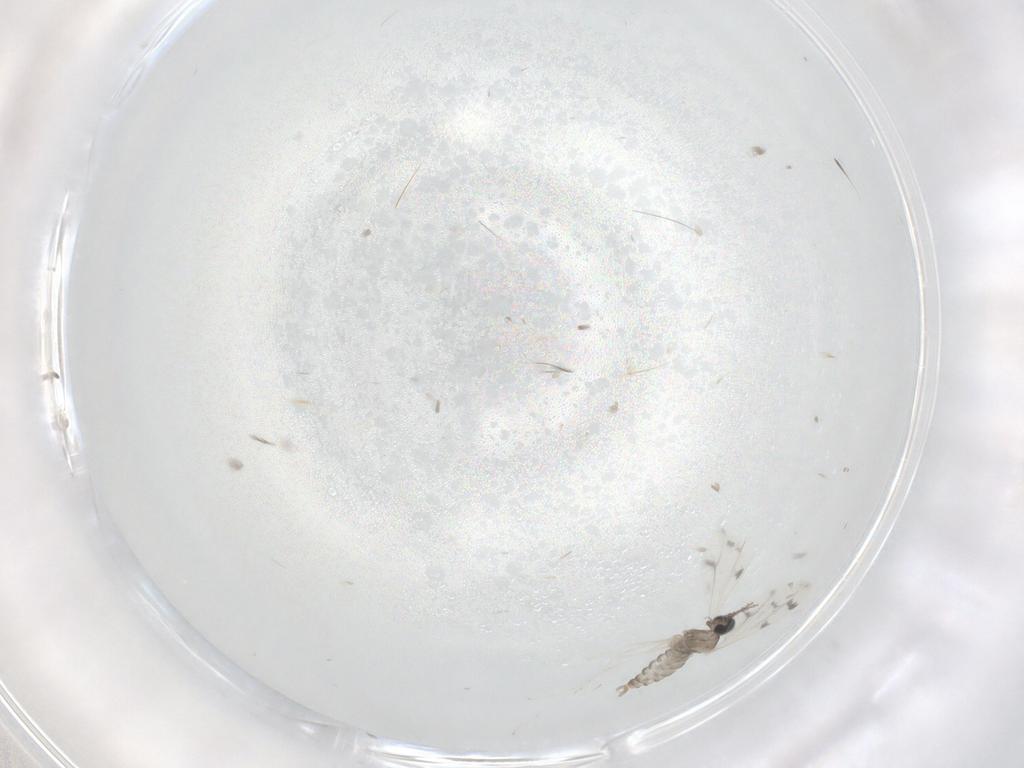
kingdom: Animalia
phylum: Arthropoda
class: Insecta
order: Diptera
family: Cecidomyiidae
